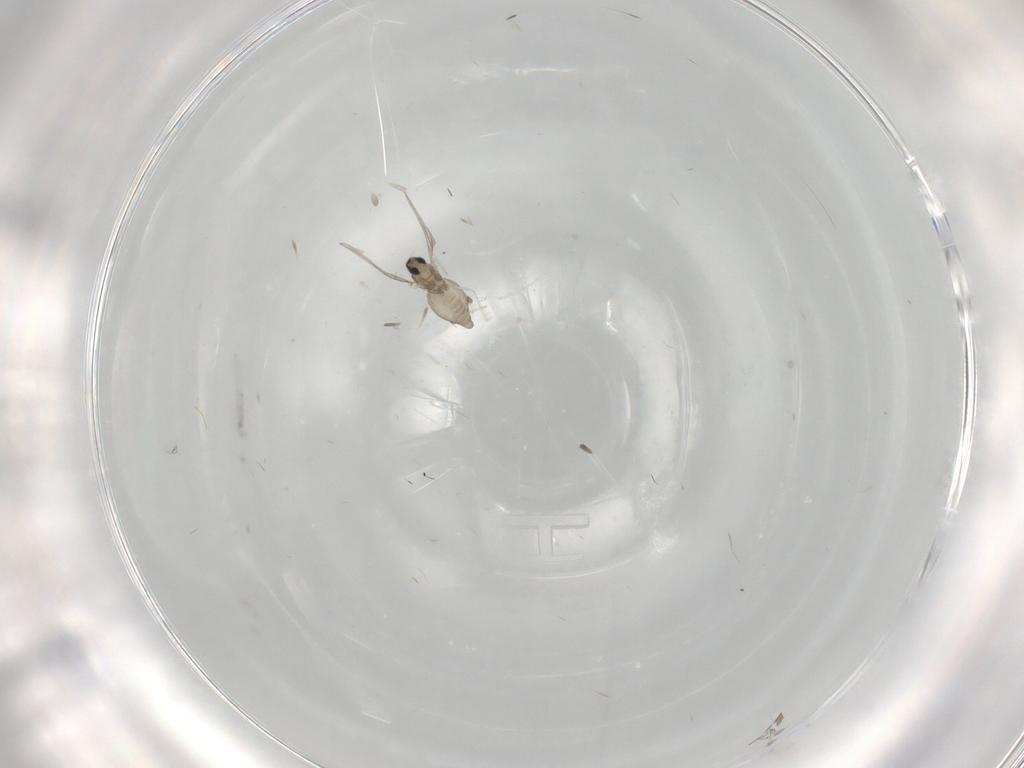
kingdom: Animalia
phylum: Arthropoda
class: Insecta
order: Diptera
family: Cecidomyiidae
